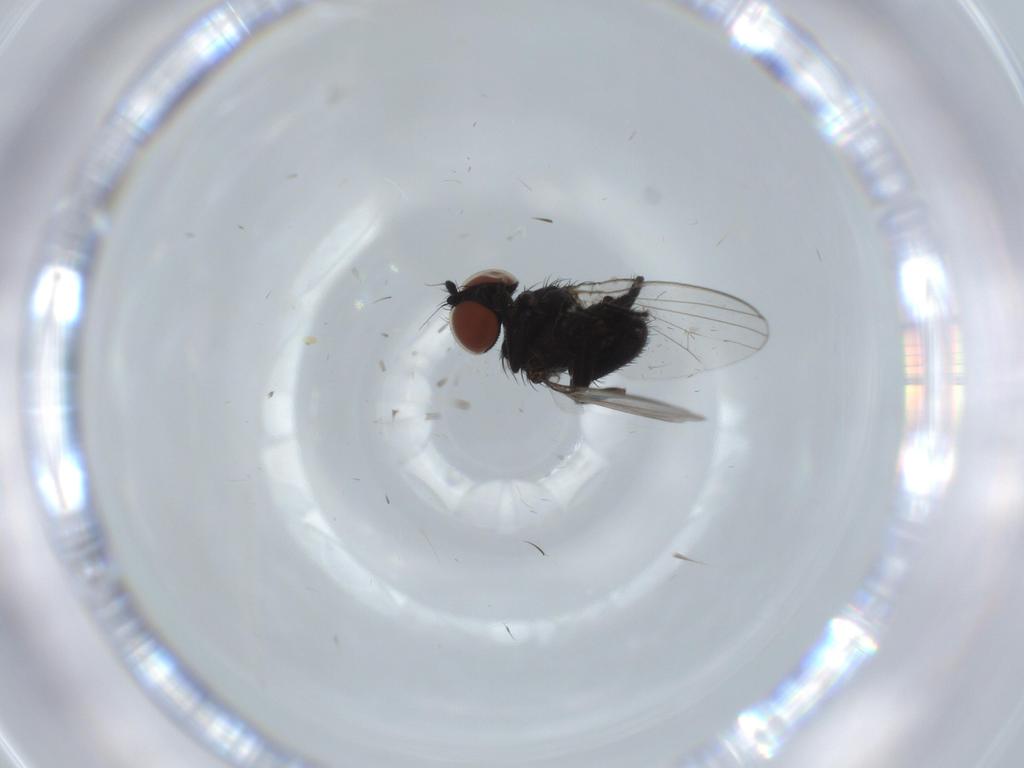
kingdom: Animalia
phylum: Arthropoda
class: Insecta
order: Diptera
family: Milichiidae
